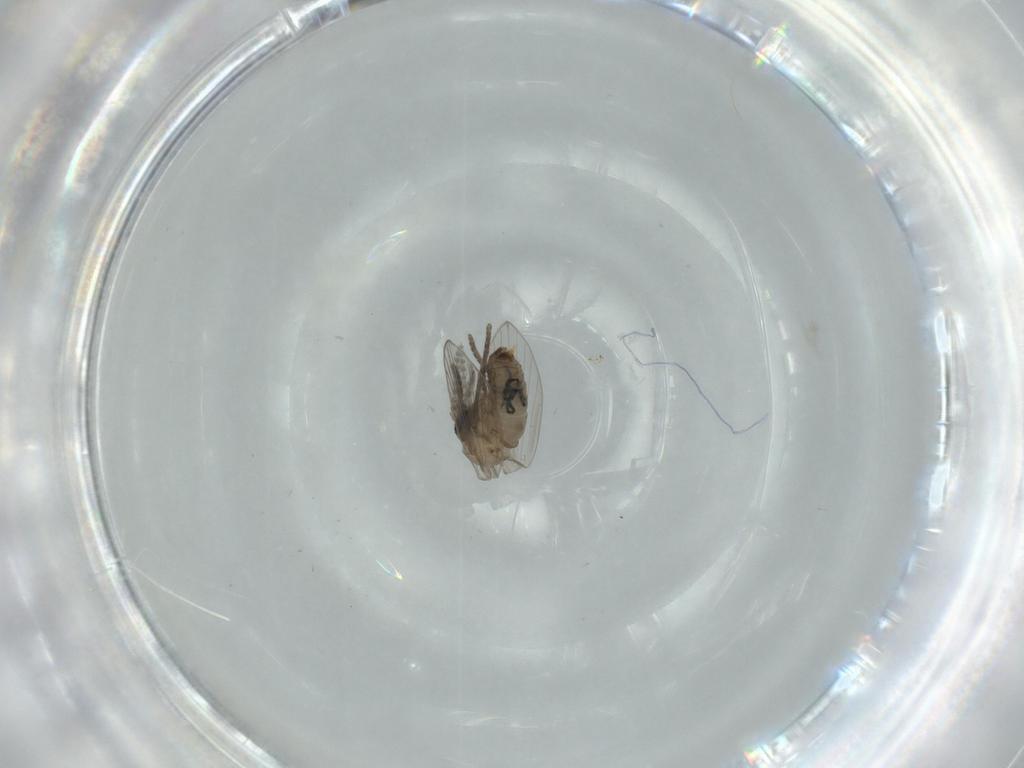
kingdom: Animalia
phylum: Arthropoda
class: Insecta
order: Diptera
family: Psychodidae
